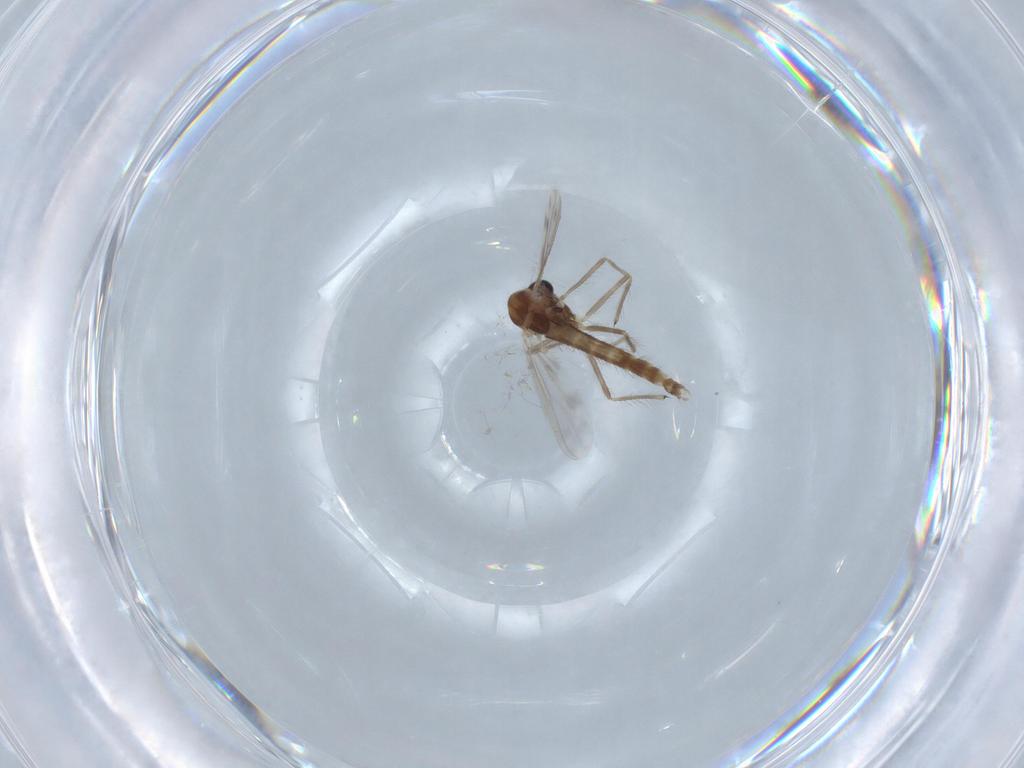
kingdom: Animalia
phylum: Arthropoda
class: Insecta
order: Diptera
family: Chironomidae
